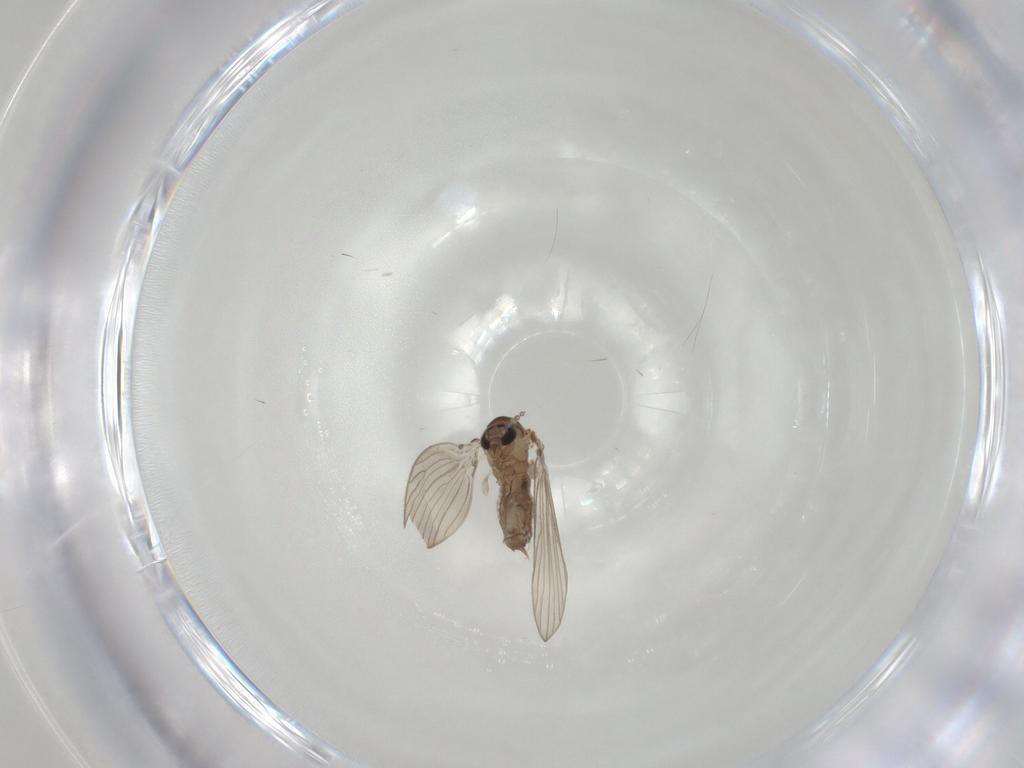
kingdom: Animalia
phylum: Arthropoda
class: Insecta
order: Diptera
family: Psychodidae
